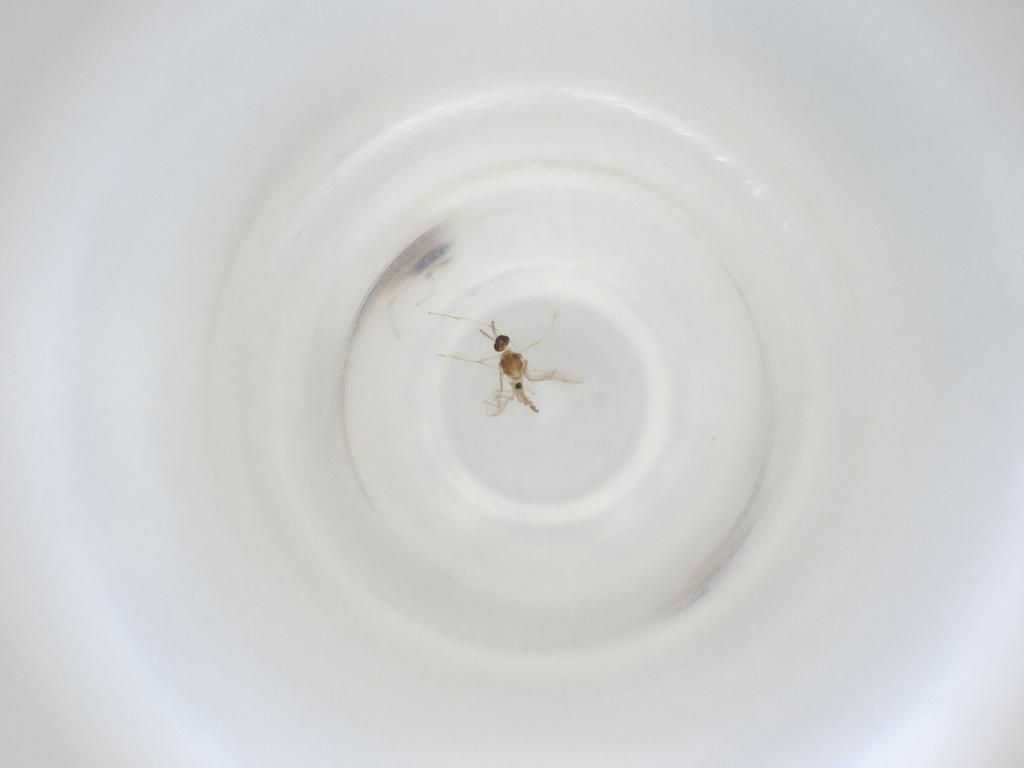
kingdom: Animalia
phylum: Arthropoda
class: Insecta
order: Diptera
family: Cecidomyiidae
